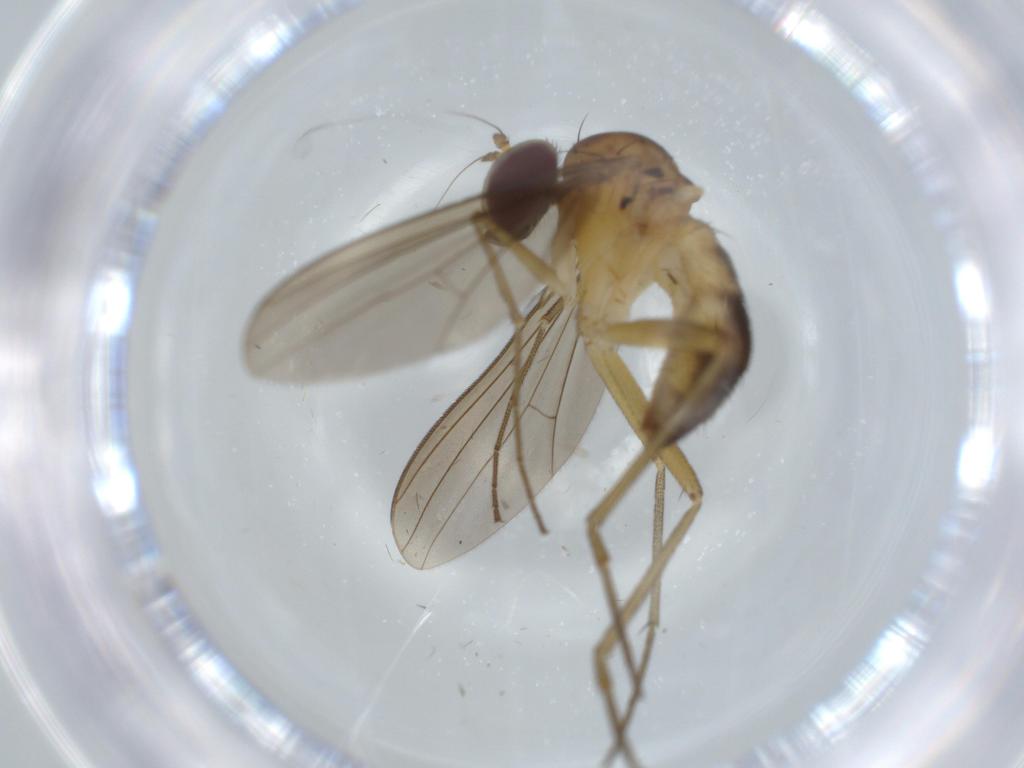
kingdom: Animalia
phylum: Arthropoda
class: Insecta
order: Diptera
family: Dolichopodidae
